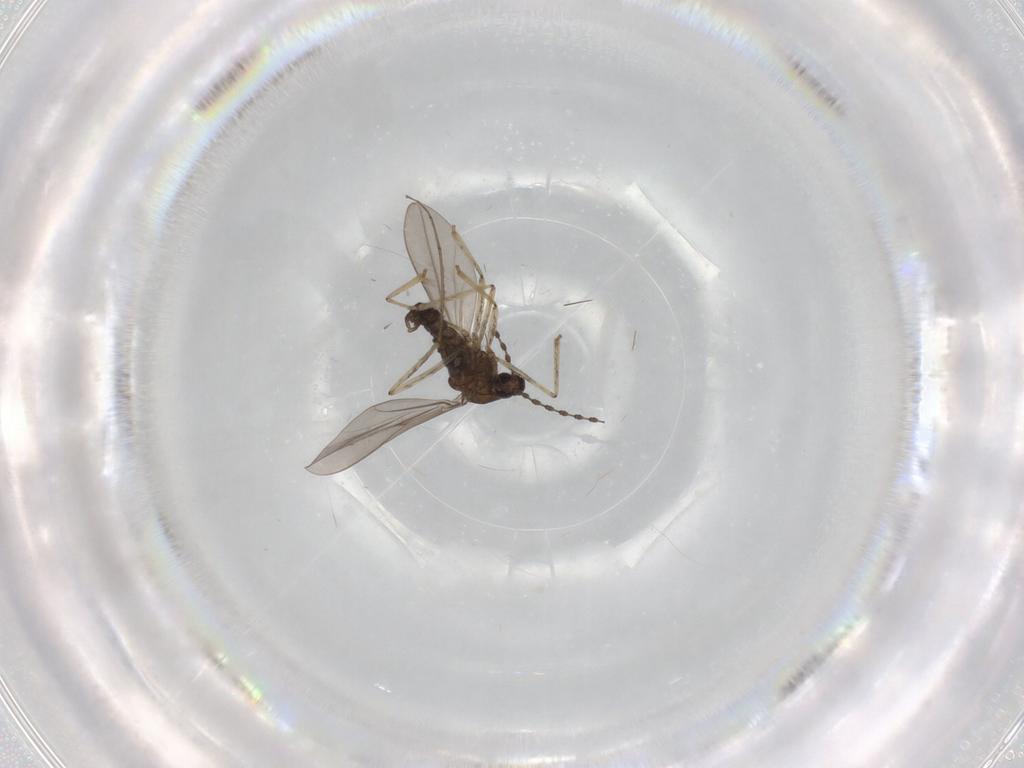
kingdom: Animalia
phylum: Arthropoda
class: Insecta
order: Diptera
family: Cecidomyiidae
